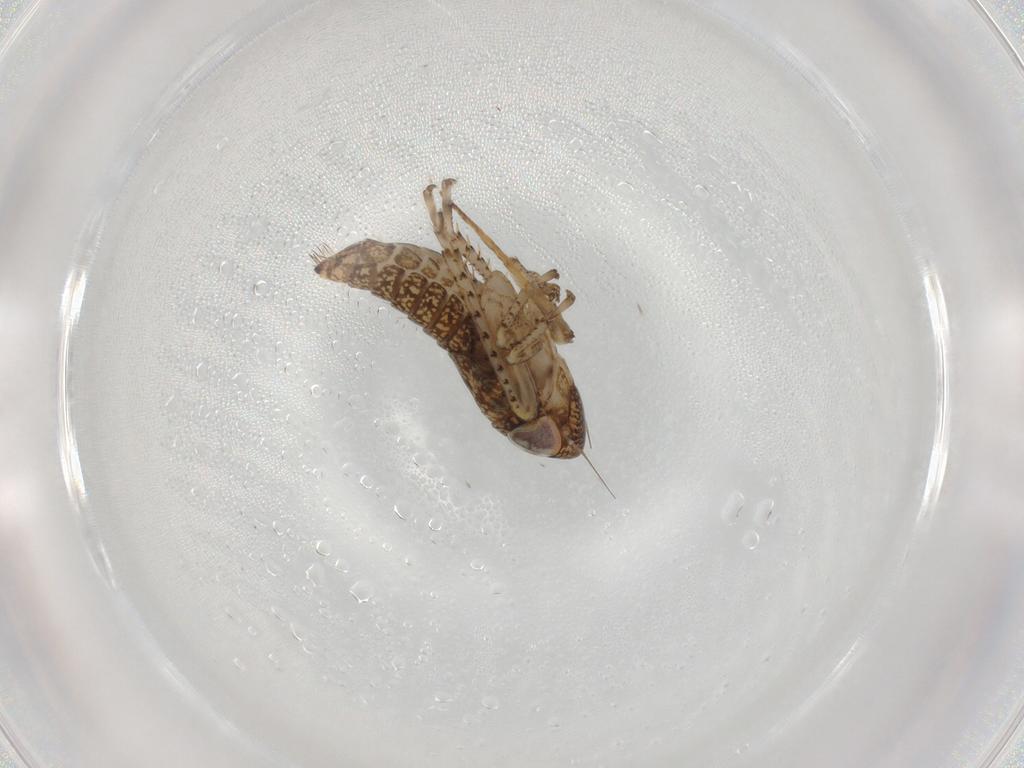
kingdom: Animalia
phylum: Arthropoda
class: Insecta
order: Hemiptera
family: Cicadellidae
